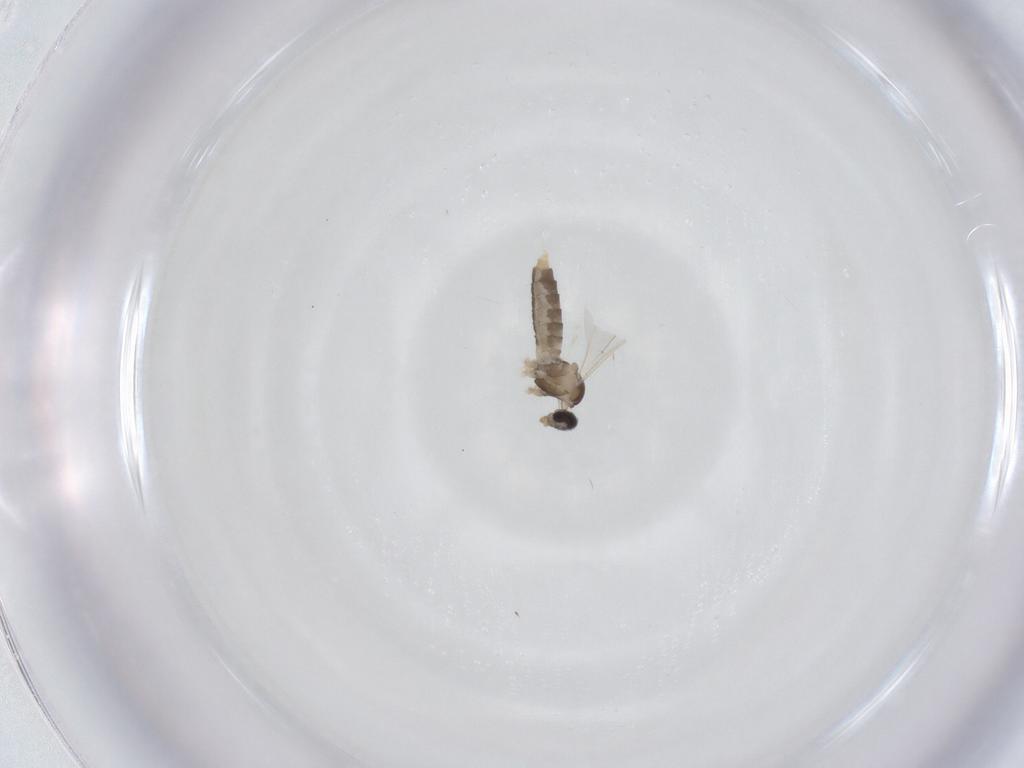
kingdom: Animalia
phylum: Arthropoda
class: Insecta
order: Diptera
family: Cecidomyiidae
